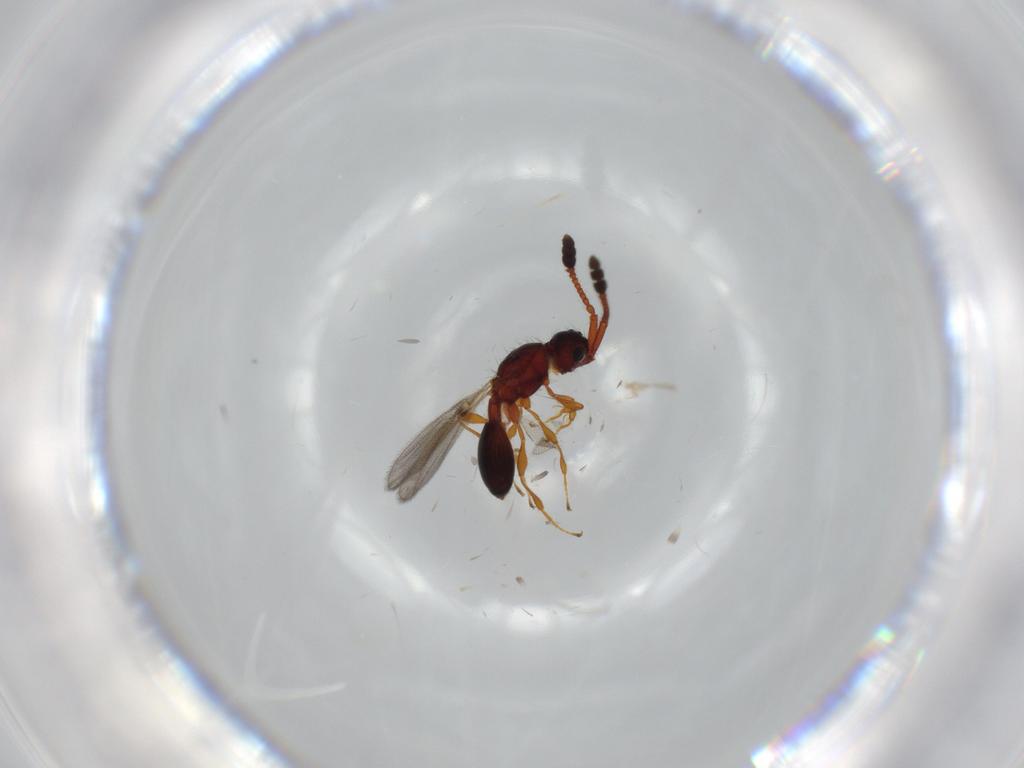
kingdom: Animalia
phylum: Arthropoda
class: Insecta
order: Hymenoptera
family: Diapriidae
